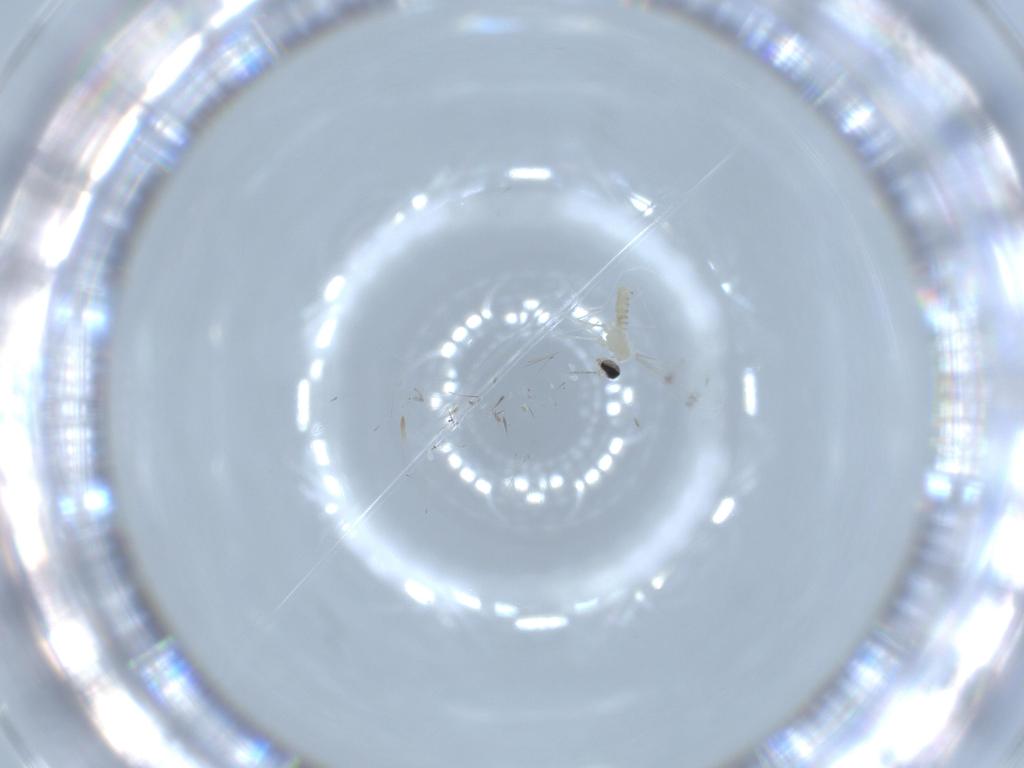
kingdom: Animalia
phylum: Arthropoda
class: Insecta
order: Diptera
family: Cecidomyiidae
